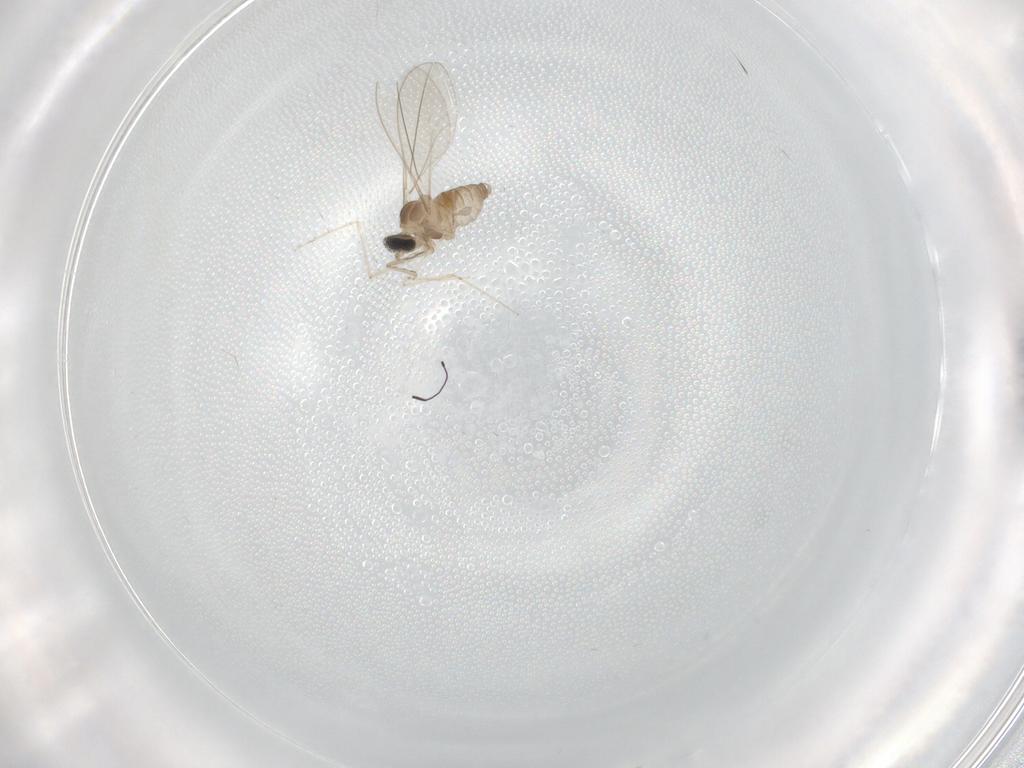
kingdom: Animalia
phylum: Arthropoda
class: Insecta
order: Diptera
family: Cecidomyiidae
